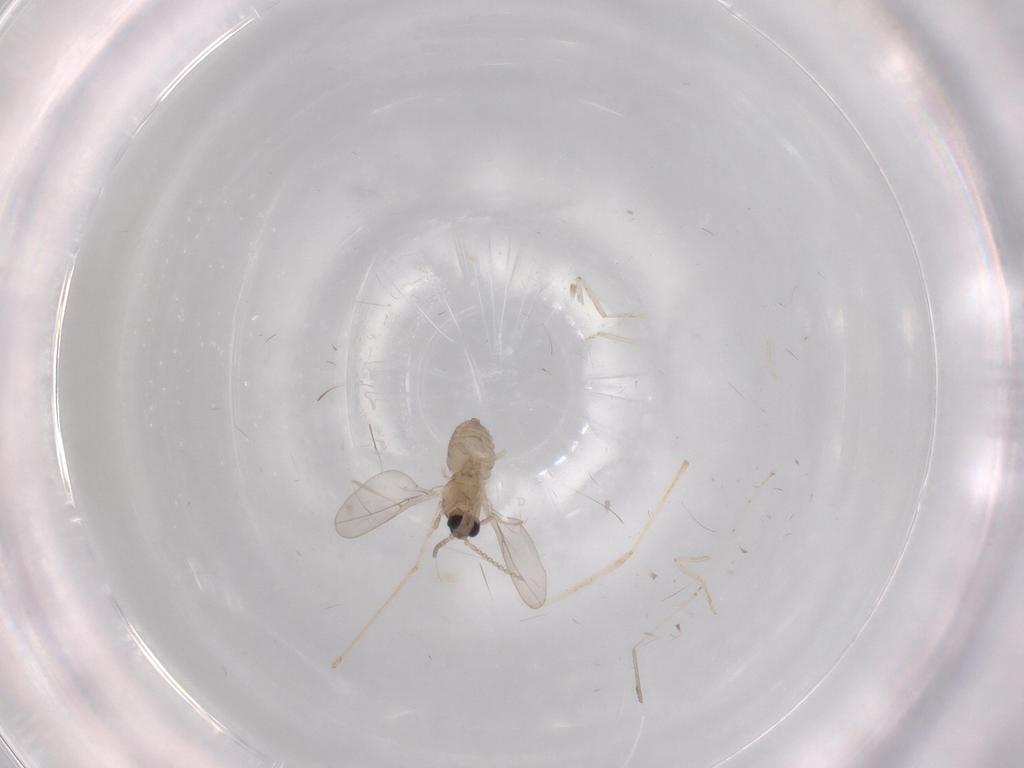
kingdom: Animalia
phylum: Arthropoda
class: Insecta
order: Diptera
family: Cecidomyiidae
